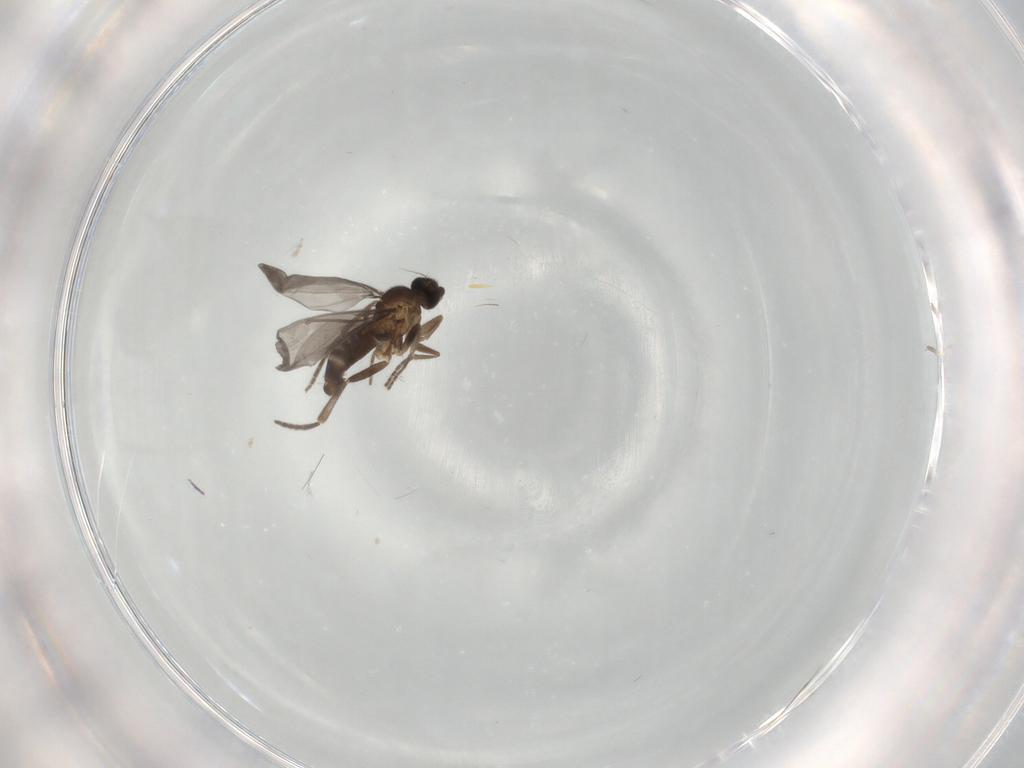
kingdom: Animalia
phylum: Arthropoda
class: Insecta
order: Diptera
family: Phoridae
